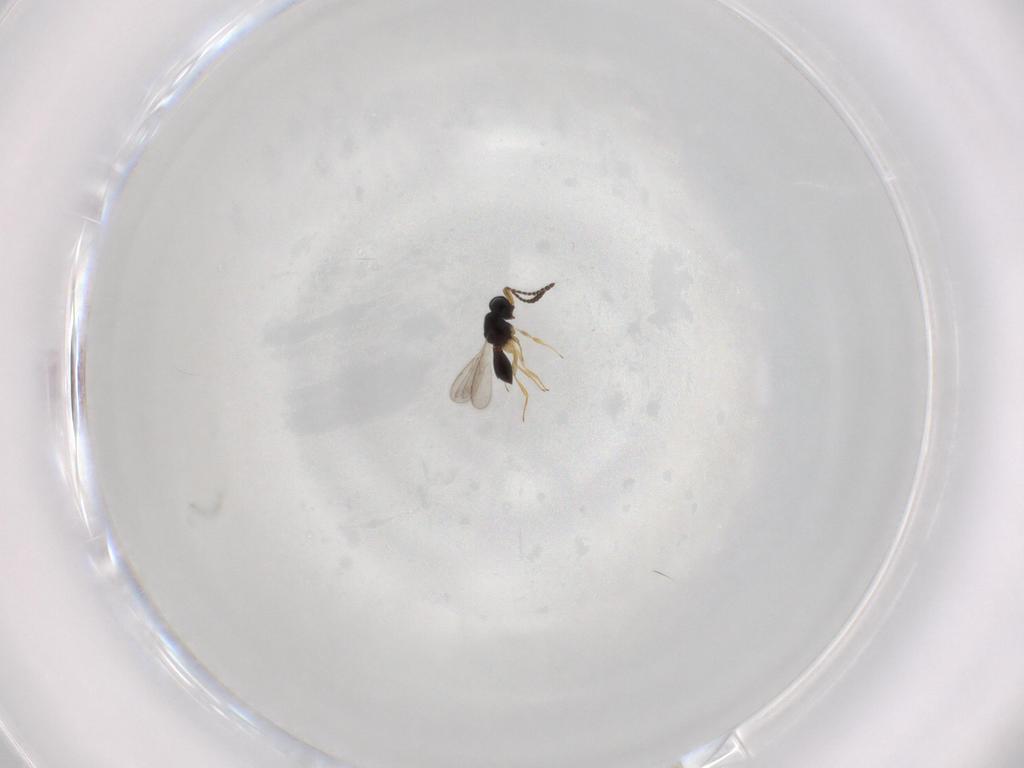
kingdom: Animalia
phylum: Arthropoda
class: Insecta
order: Hymenoptera
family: Scelionidae
